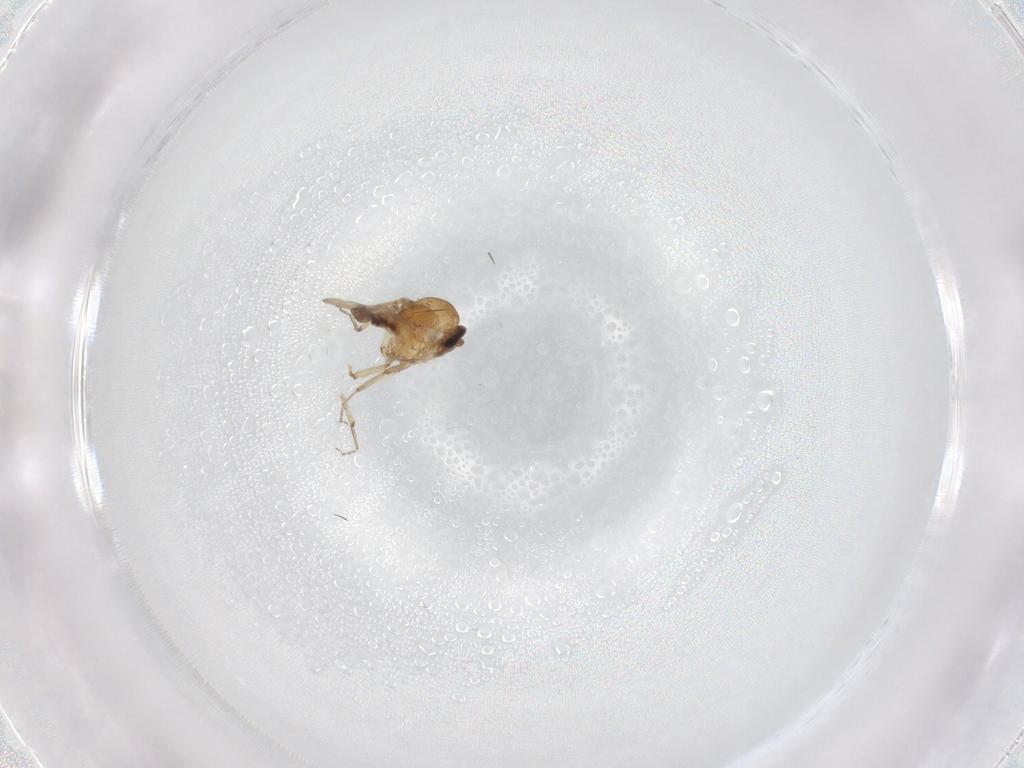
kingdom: Animalia
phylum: Arthropoda
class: Insecta
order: Diptera
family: Ceratopogonidae
